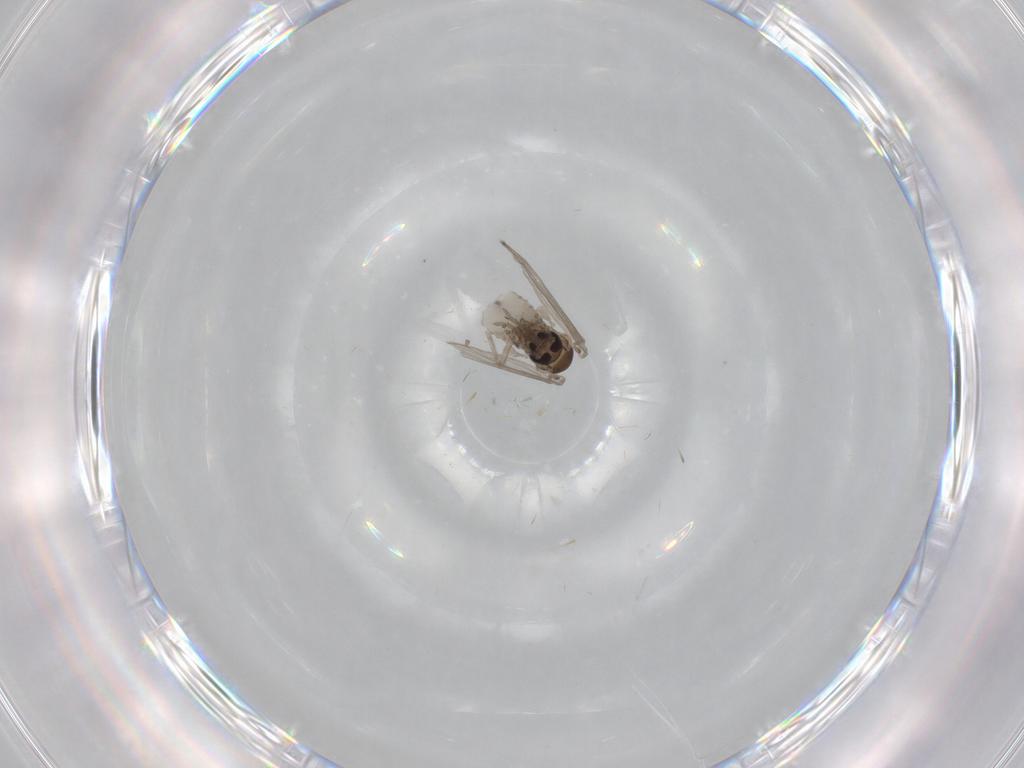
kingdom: Animalia
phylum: Arthropoda
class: Insecta
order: Diptera
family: Psychodidae
